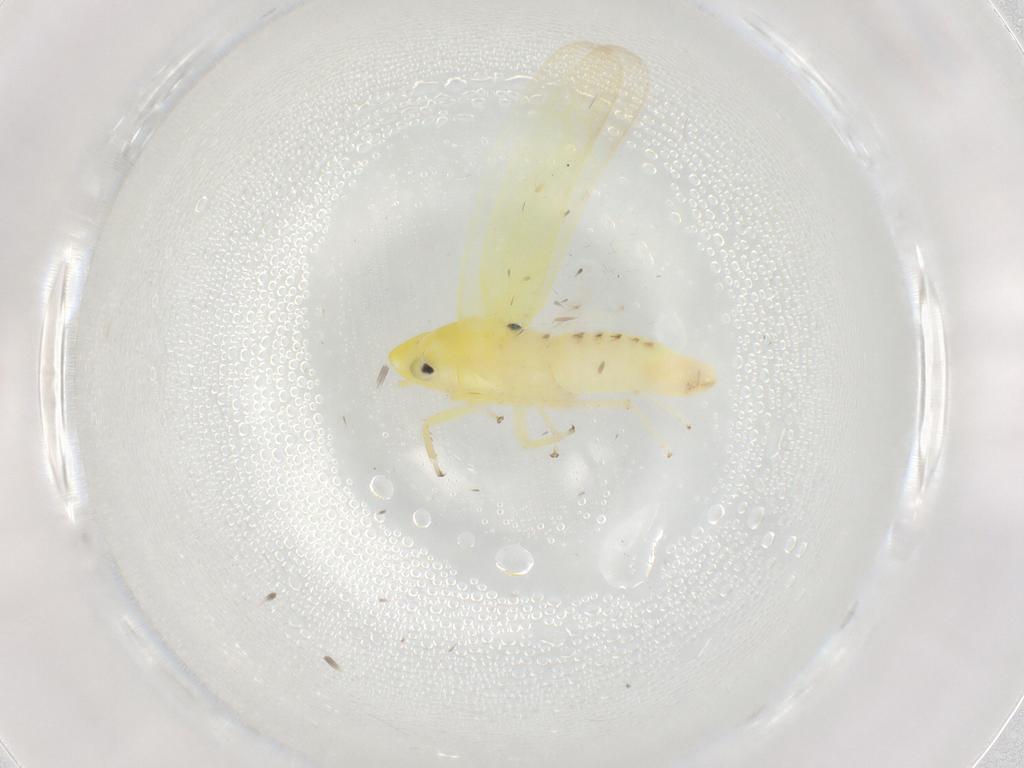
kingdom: Animalia
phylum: Arthropoda
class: Insecta
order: Hemiptera
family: Cicadellidae
